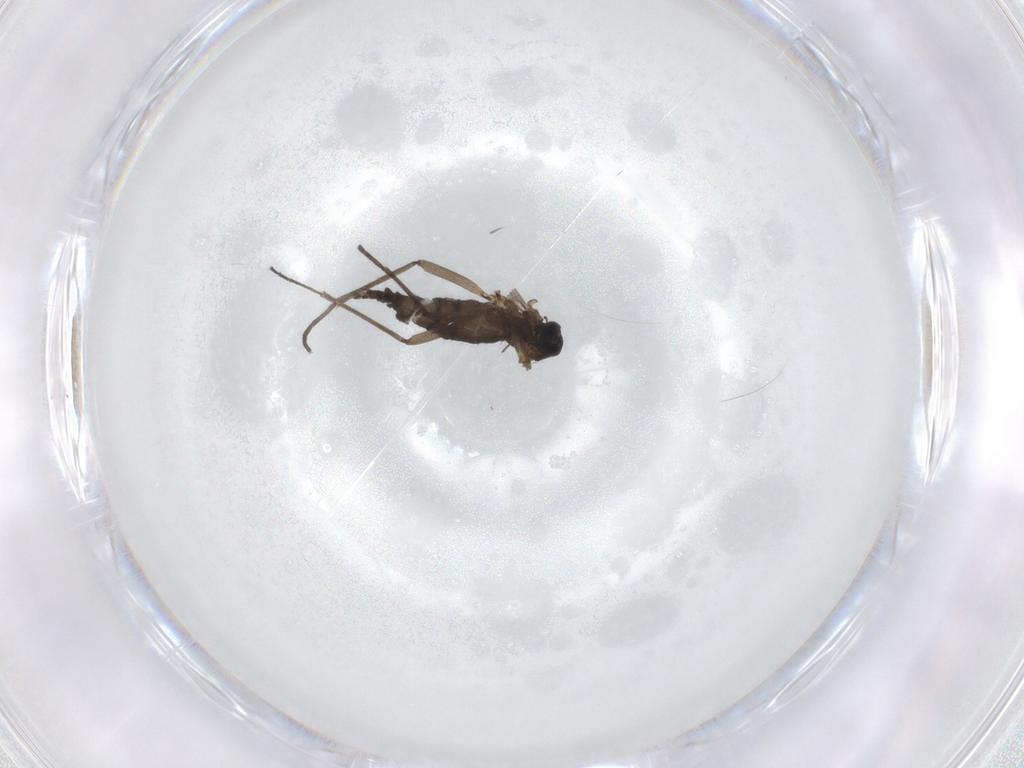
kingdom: Animalia
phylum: Arthropoda
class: Insecta
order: Diptera
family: Sciaridae
